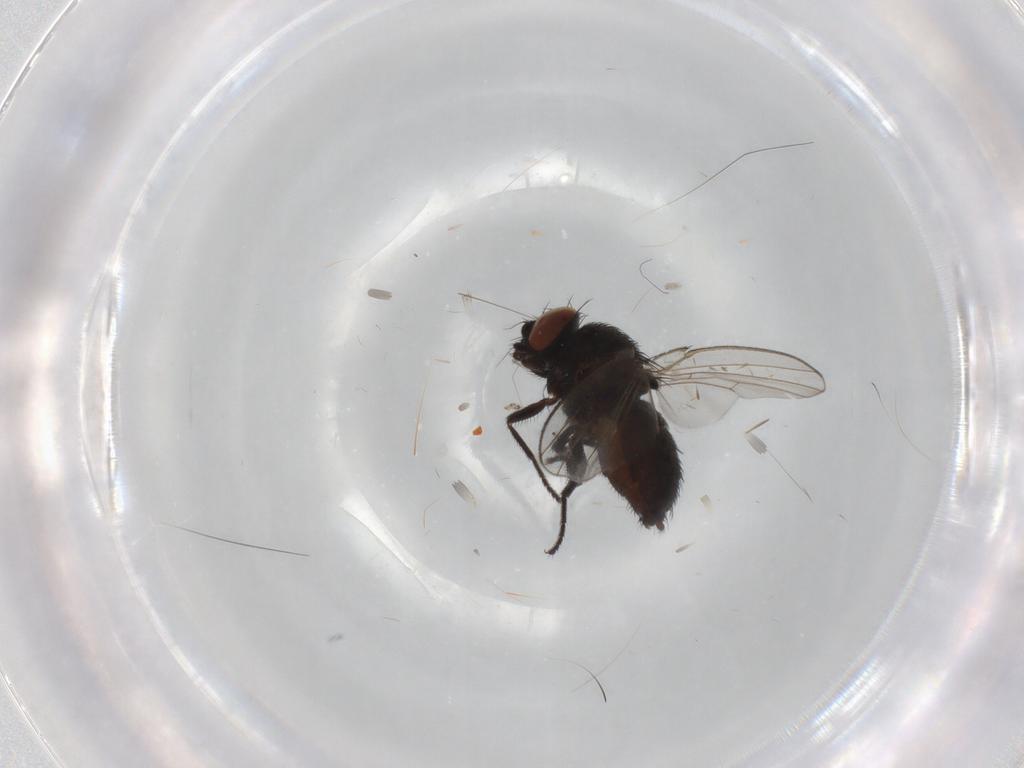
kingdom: Animalia
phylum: Arthropoda
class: Insecta
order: Diptera
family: Milichiidae
